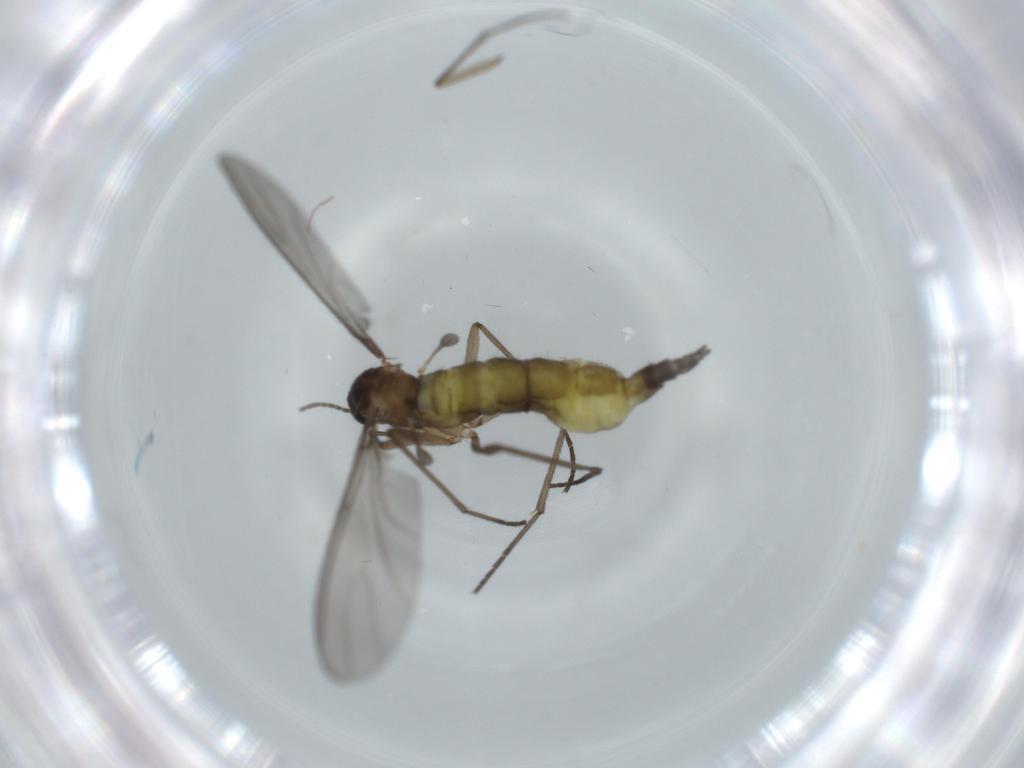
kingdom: Animalia
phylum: Arthropoda
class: Insecta
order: Diptera
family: Sciaridae
